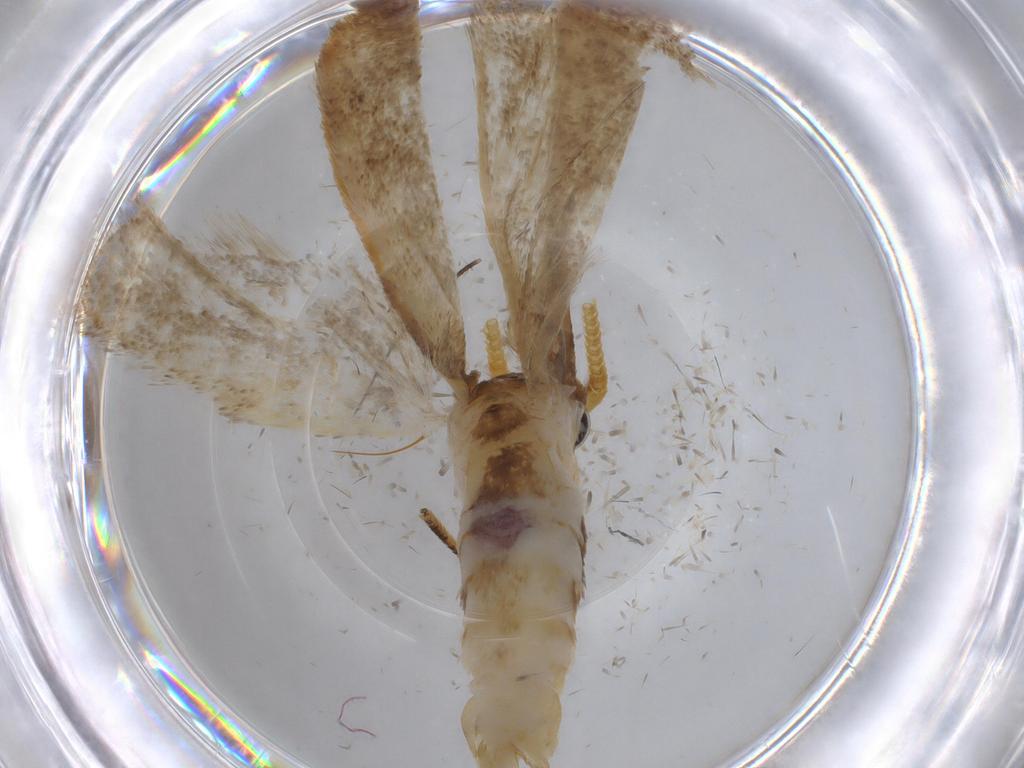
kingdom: Animalia
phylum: Arthropoda
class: Insecta
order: Lepidoptera
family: Lecithoceridae
